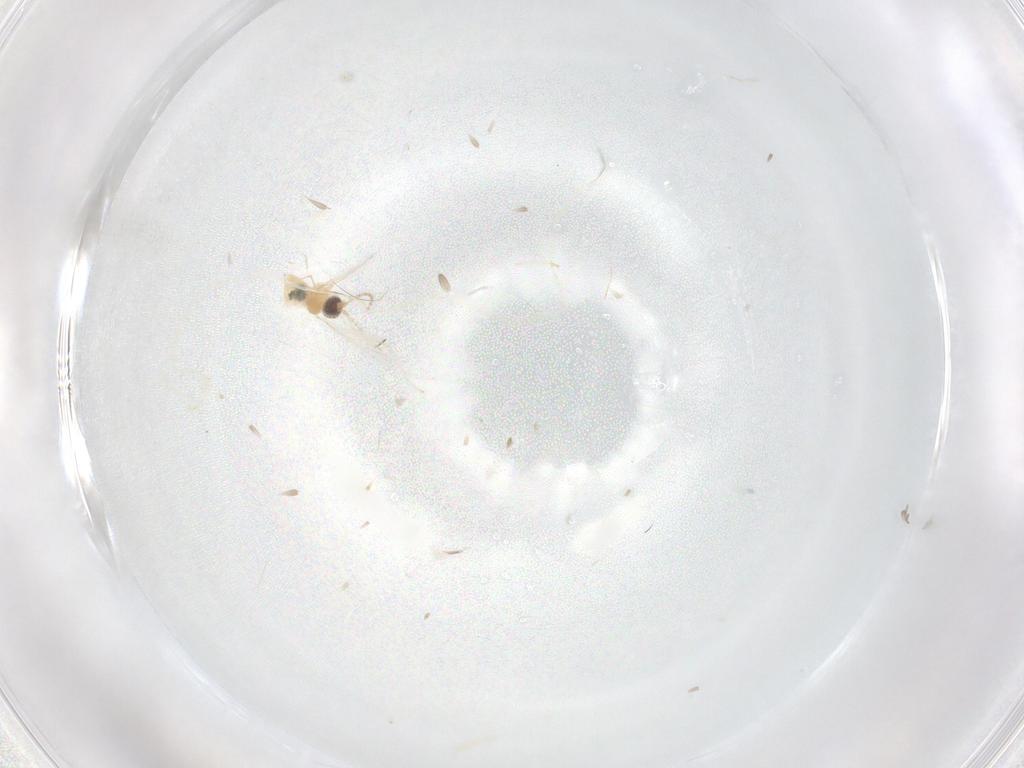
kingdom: Animalia
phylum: Arthropoda
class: Insecta
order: Diptera
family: Cecidomyiidae
